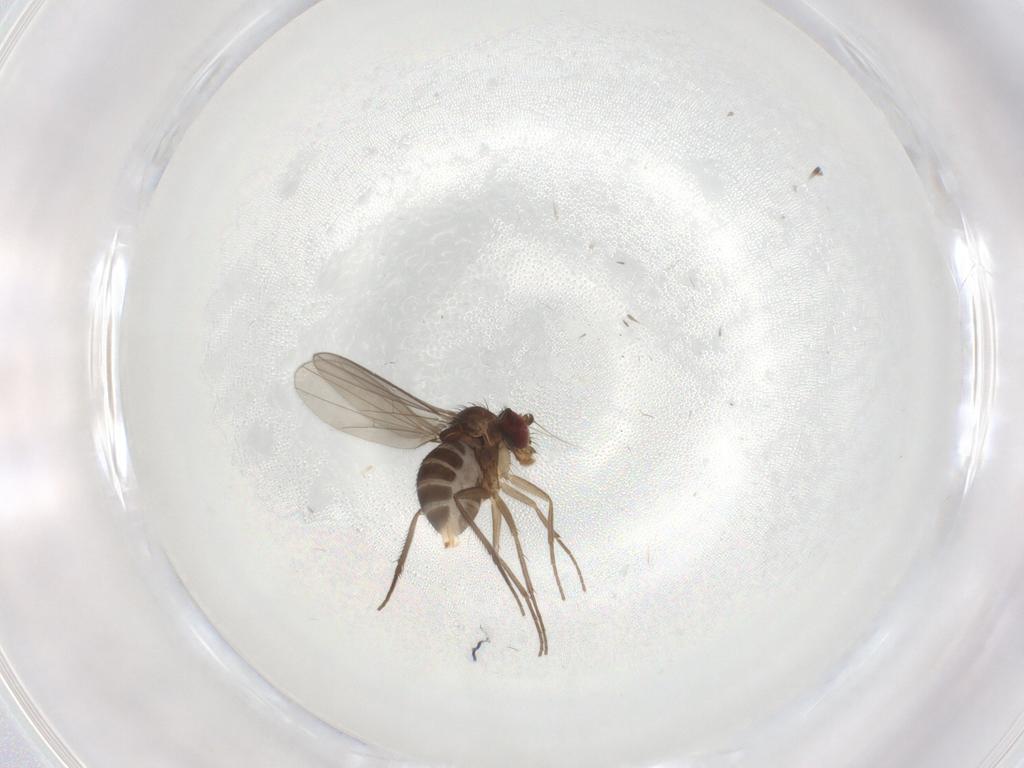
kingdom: Animalia
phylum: Arthropoda
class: Insecta
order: Diptera
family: Dolichopodidae
